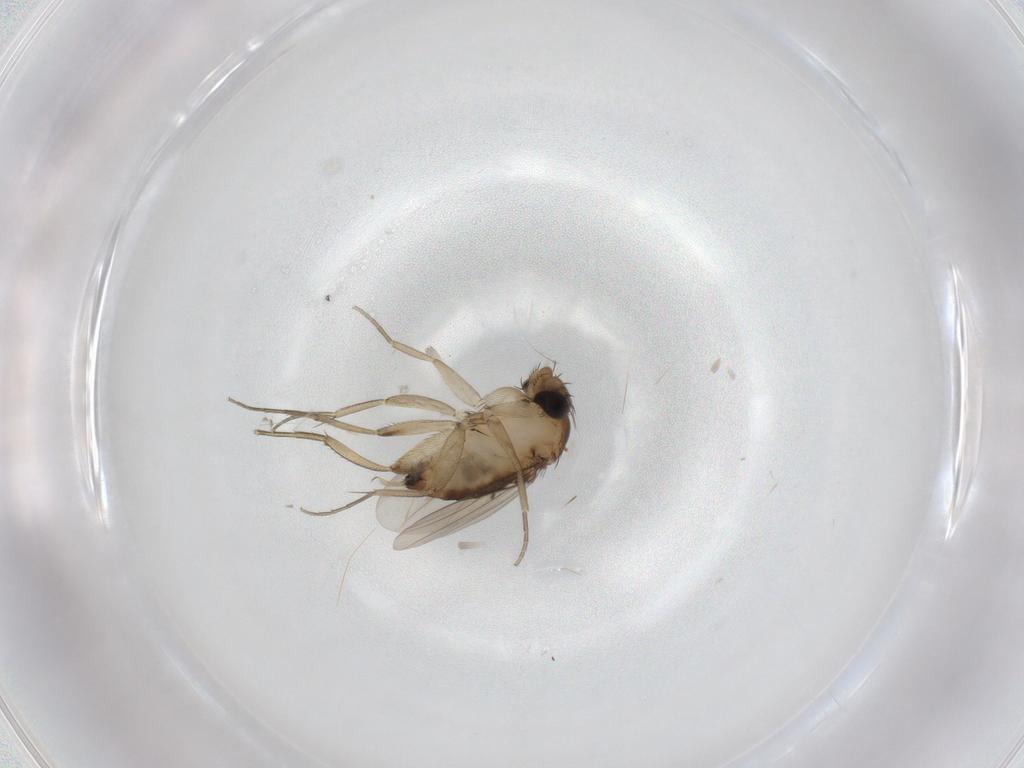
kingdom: Animalia
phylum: Arthropoda
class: Insecta
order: Diptera
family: Phoridae
